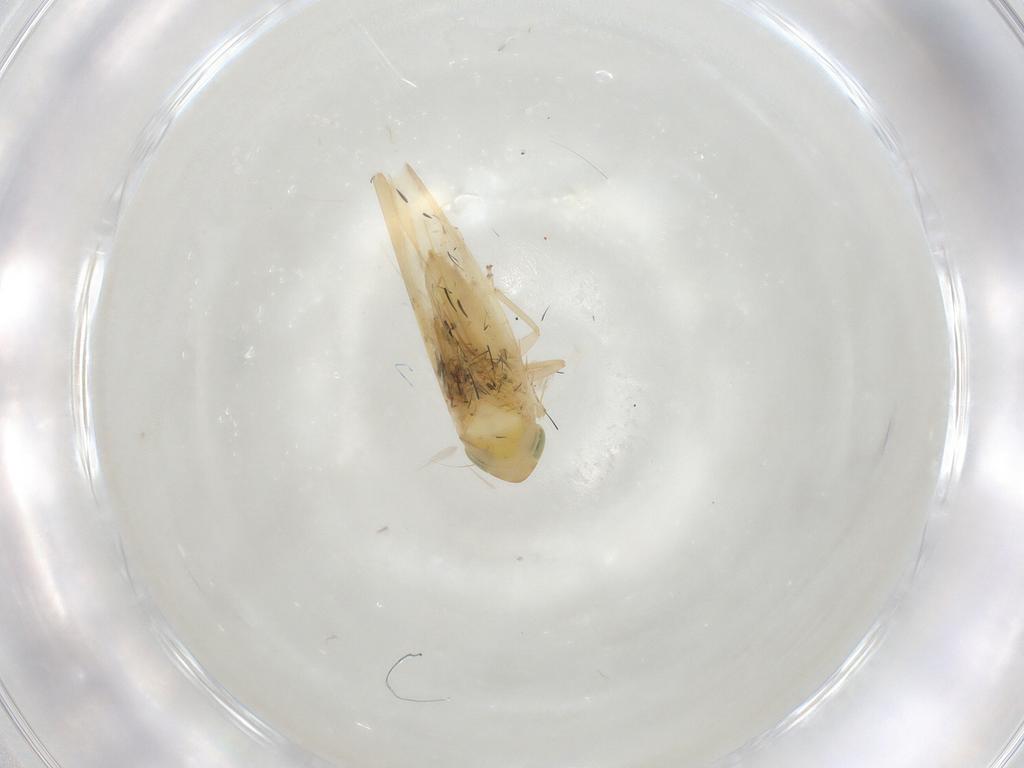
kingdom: Animalia
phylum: Arthropoda
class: Insecta
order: Hemiptera
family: Cicadellidae
